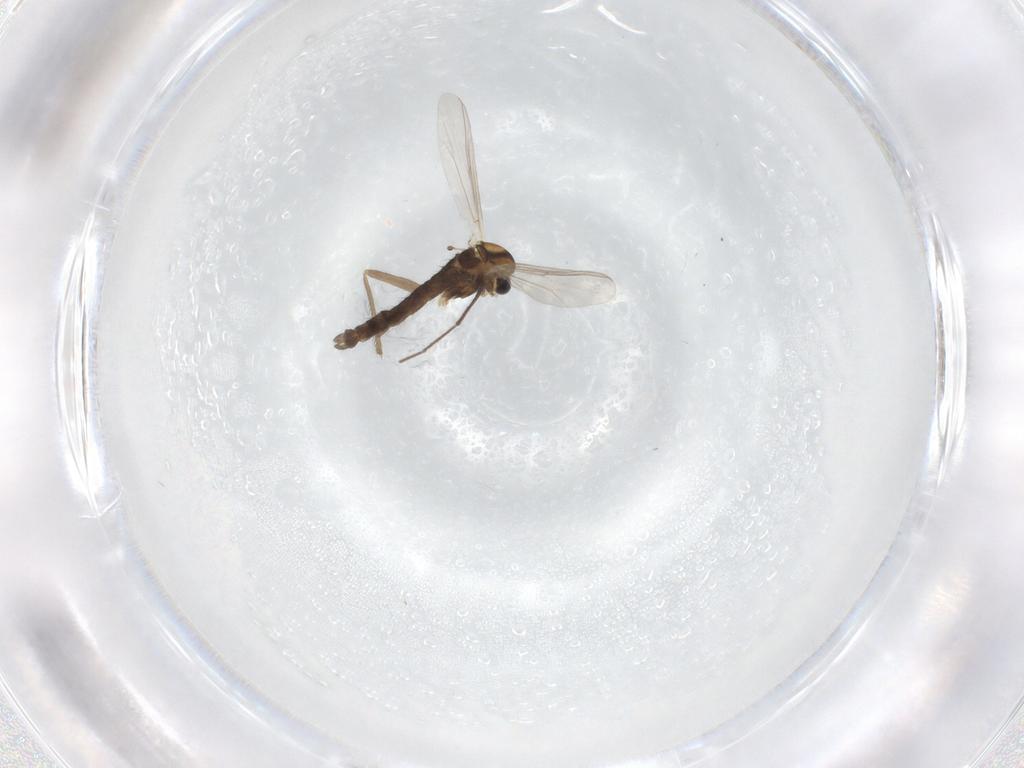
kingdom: Animalia
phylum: Arthropoda
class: Insecta
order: Diptera
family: Chironomidae
